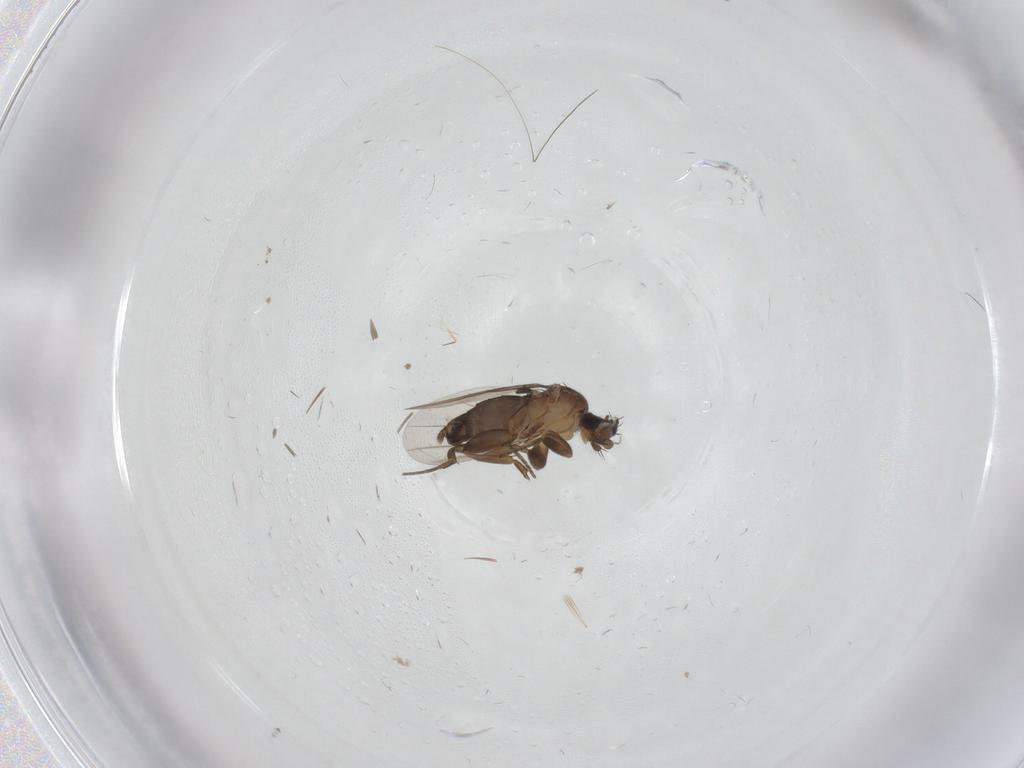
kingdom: Animalia
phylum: Arthropoda
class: Insecta
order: Diptera
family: Phoridae
